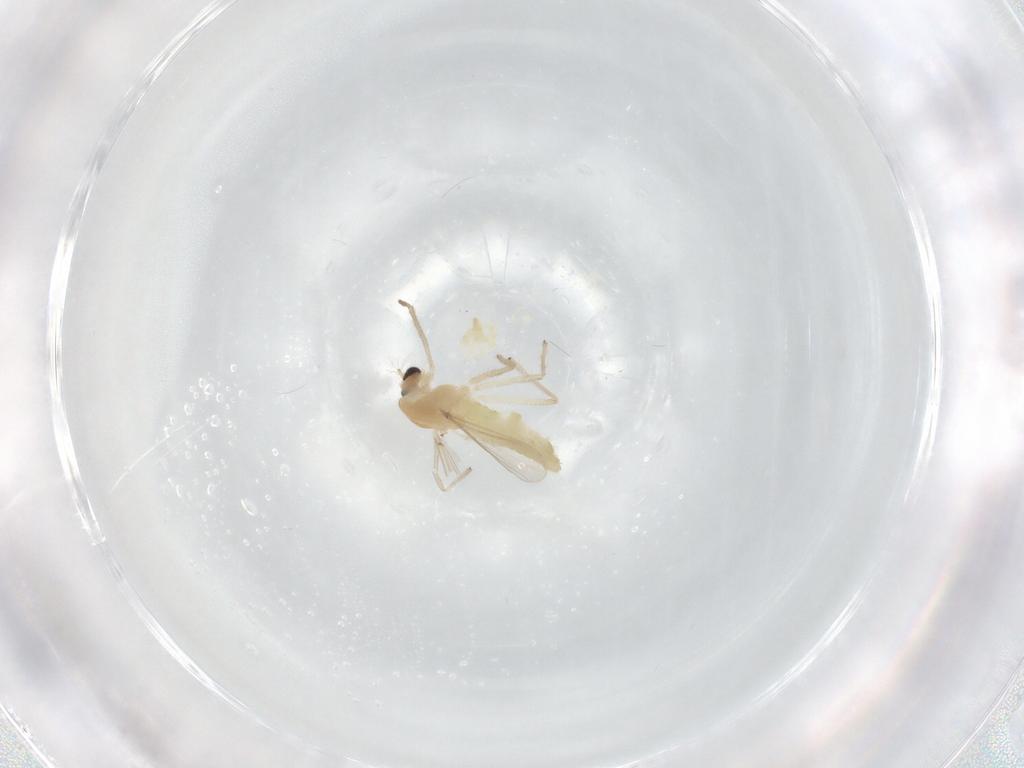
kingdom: Animalia
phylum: Arthropoda
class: Insecta
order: Diptera
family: Chironomidae
